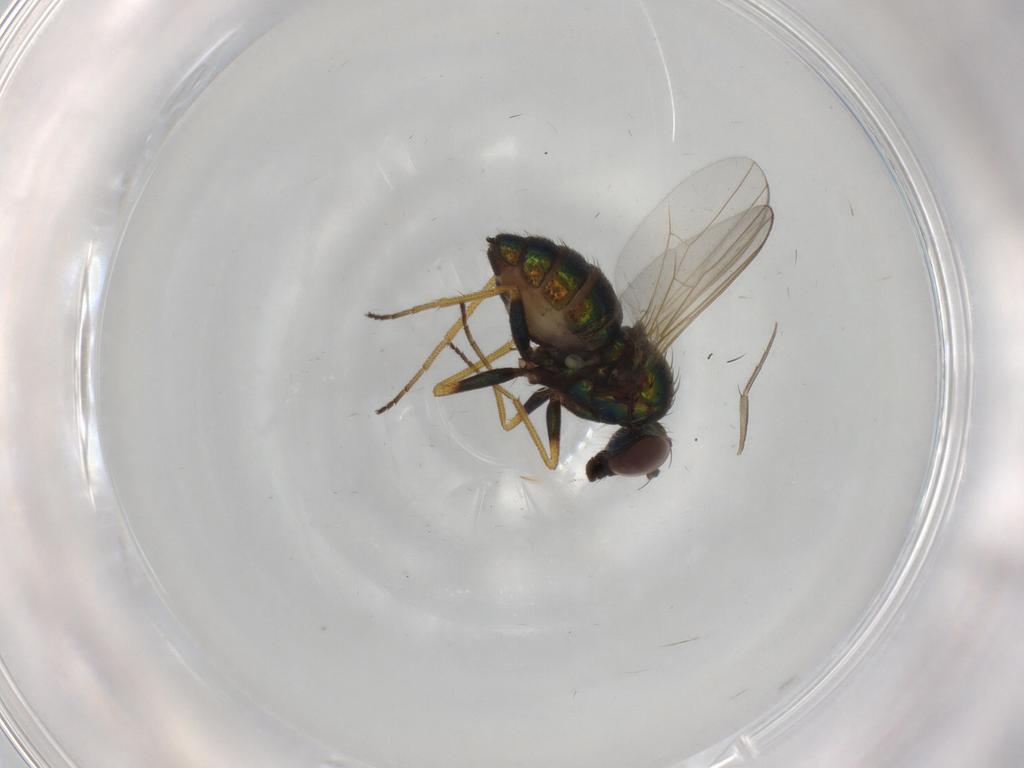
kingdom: Animalia
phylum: Arthropoda
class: Insecta
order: Diptera
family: Dolichopodidae
